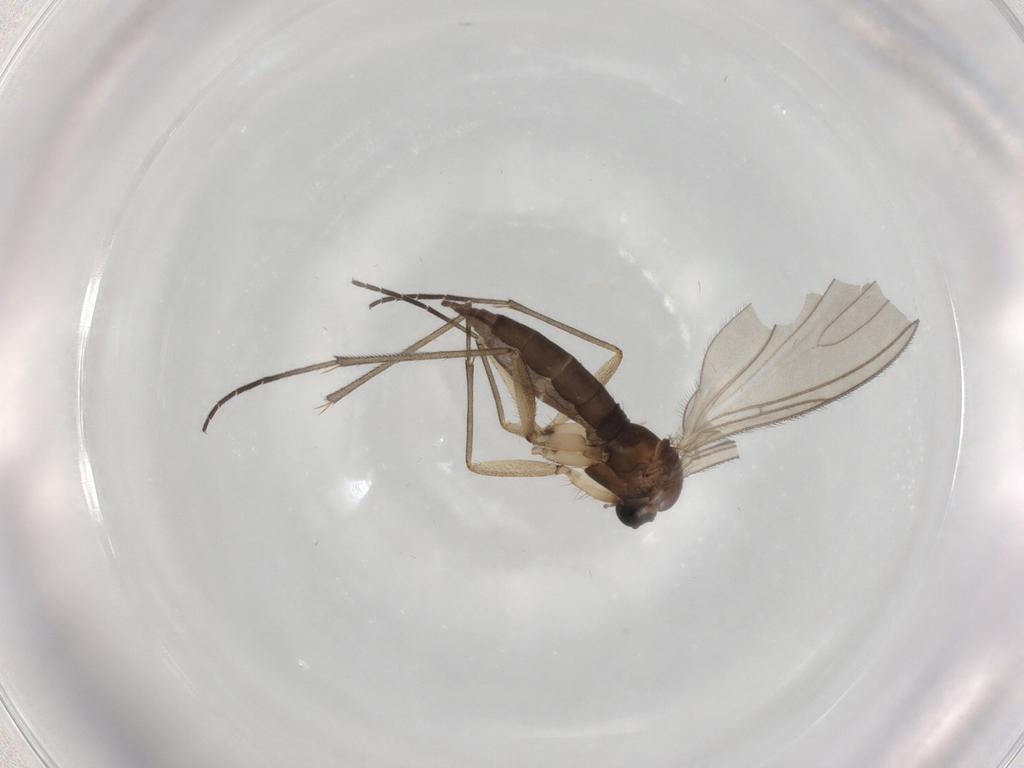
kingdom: Animalia
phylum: Arthropoda
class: Insecta
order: Diptera
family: Sciaridae
